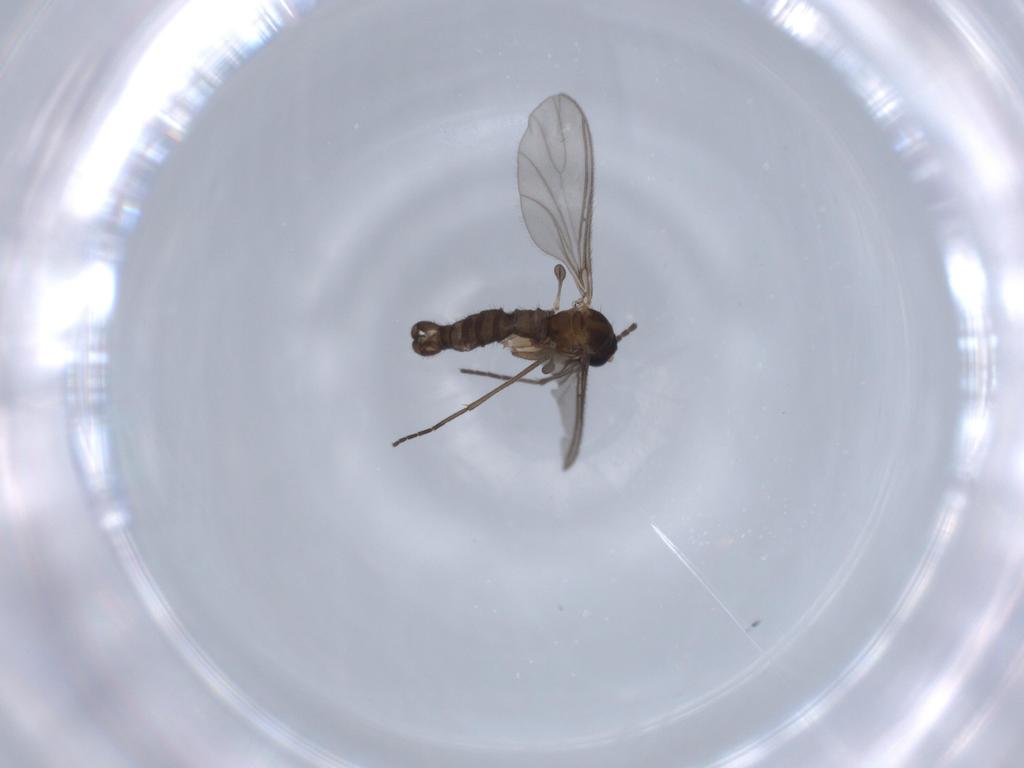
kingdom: Animalia
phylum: Arthropoda
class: Insecta
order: Diptera
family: Sciaridae
